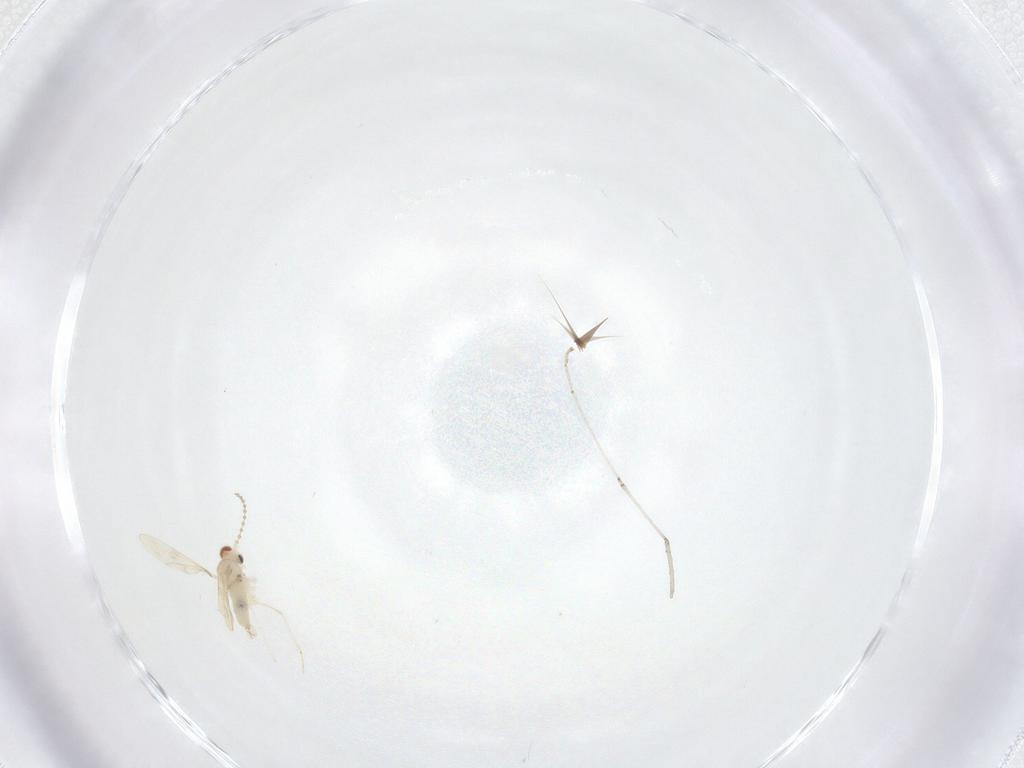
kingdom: Animalia
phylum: Arthropoda
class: Insecta
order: Diptera
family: Cecidomyiidae
